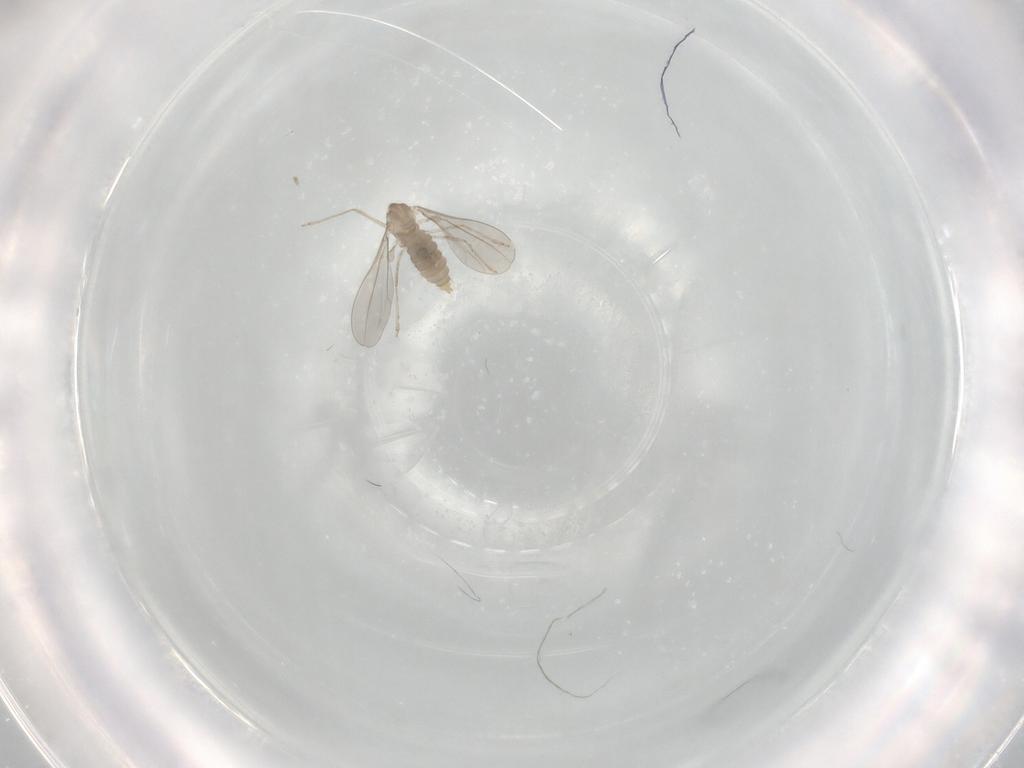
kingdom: Animalia
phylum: Arthropoda
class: Insecta
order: Diptera
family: Cecidomyiidae
